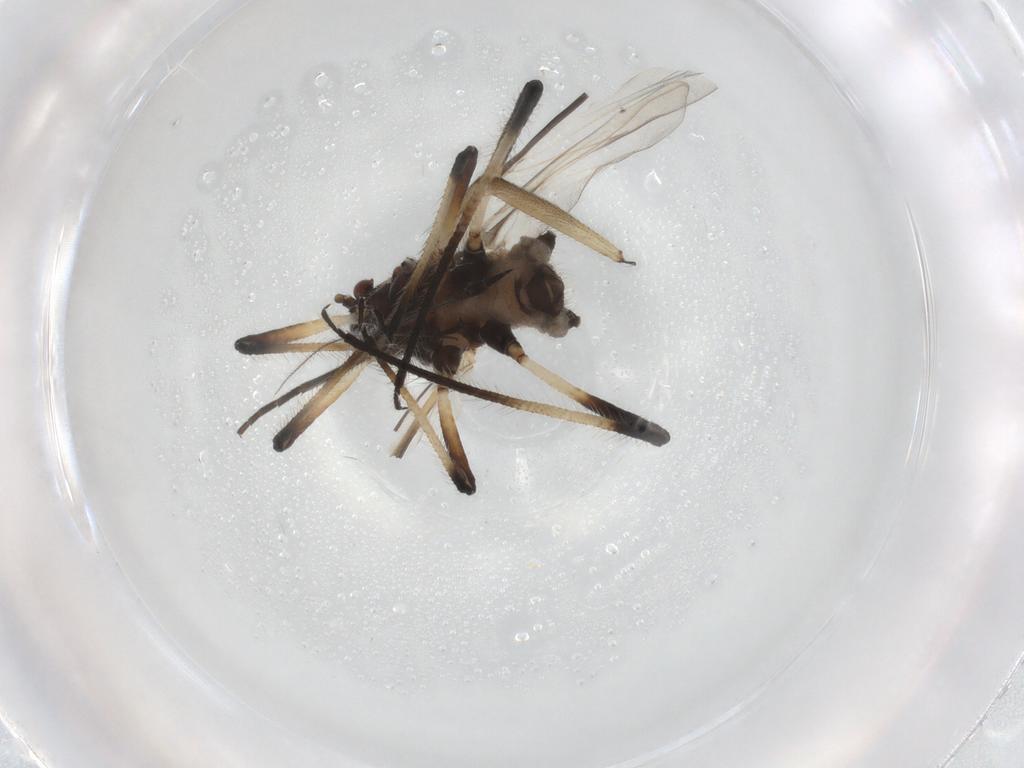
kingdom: Animalia
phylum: Arthropoda
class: Insecta
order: Diptera
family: Sciaridae
